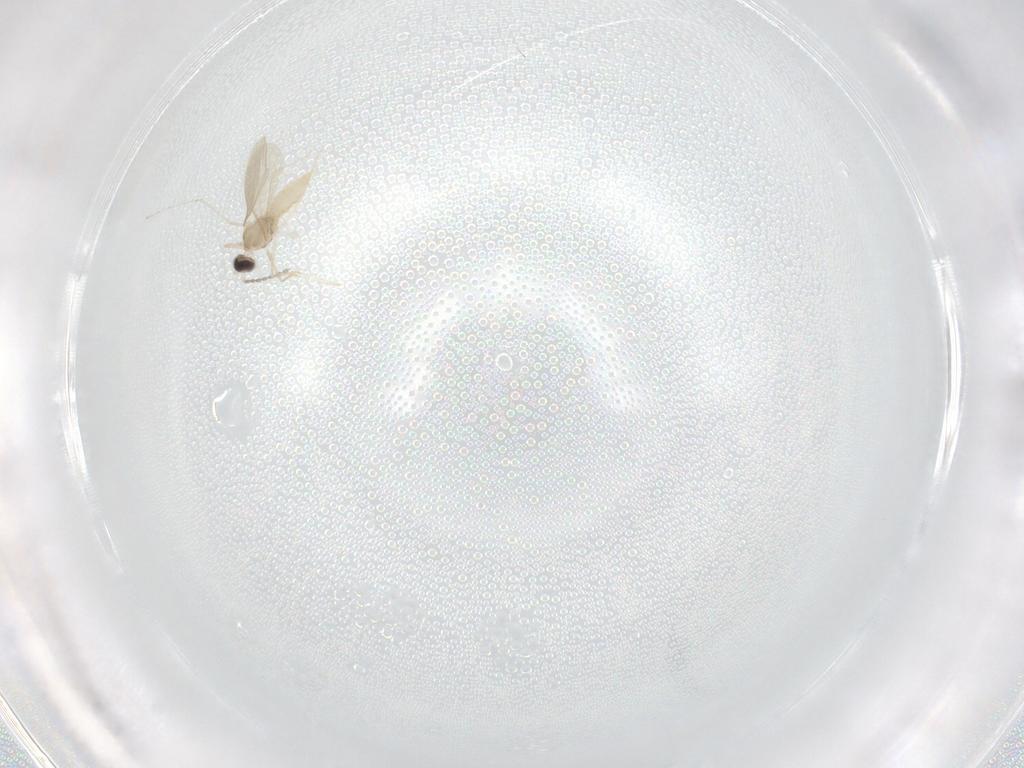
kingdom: Animalia
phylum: Arthropoda
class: Insecta
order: Diptera
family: Cecidomyiidae
